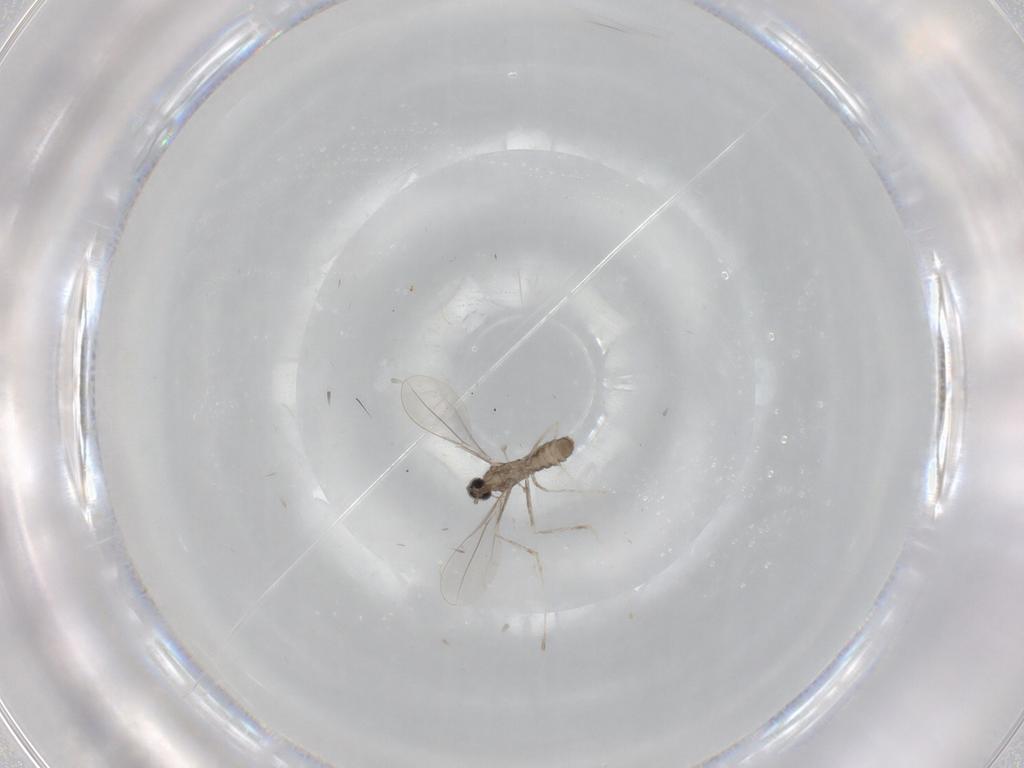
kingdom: Animalia
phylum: Arthropoda
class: Insecta
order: Diptera
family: Cecidomyiidae
